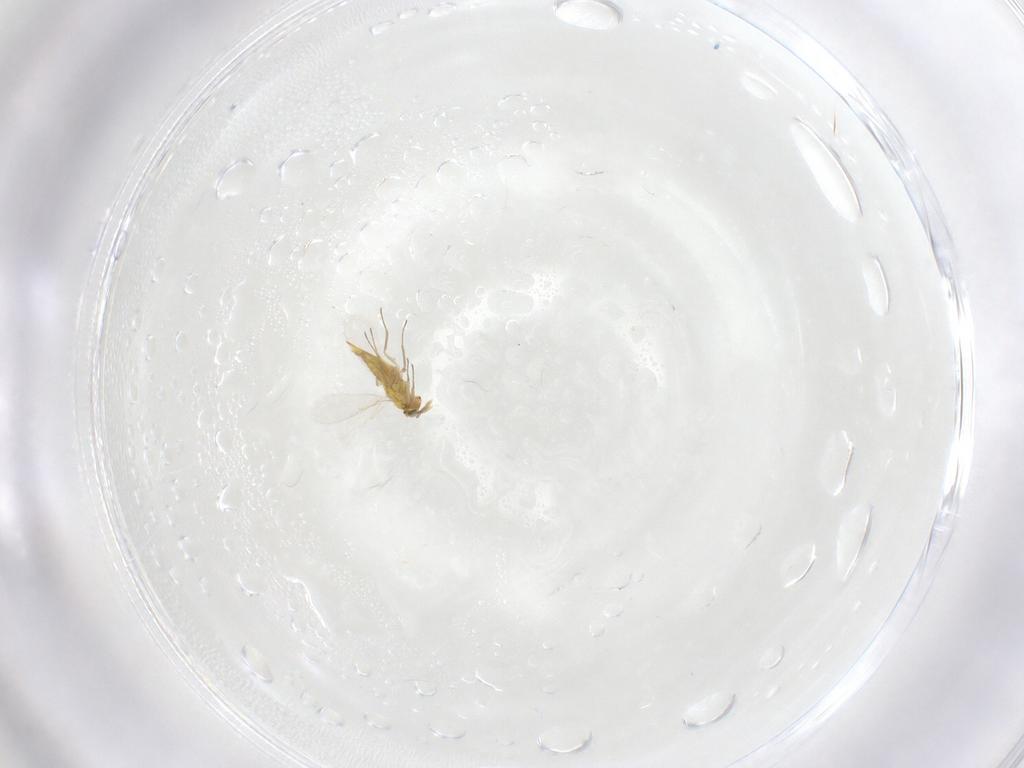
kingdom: Animalia
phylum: Arthropoda
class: Insecta
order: Hymenoptera
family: Aphelinidae
